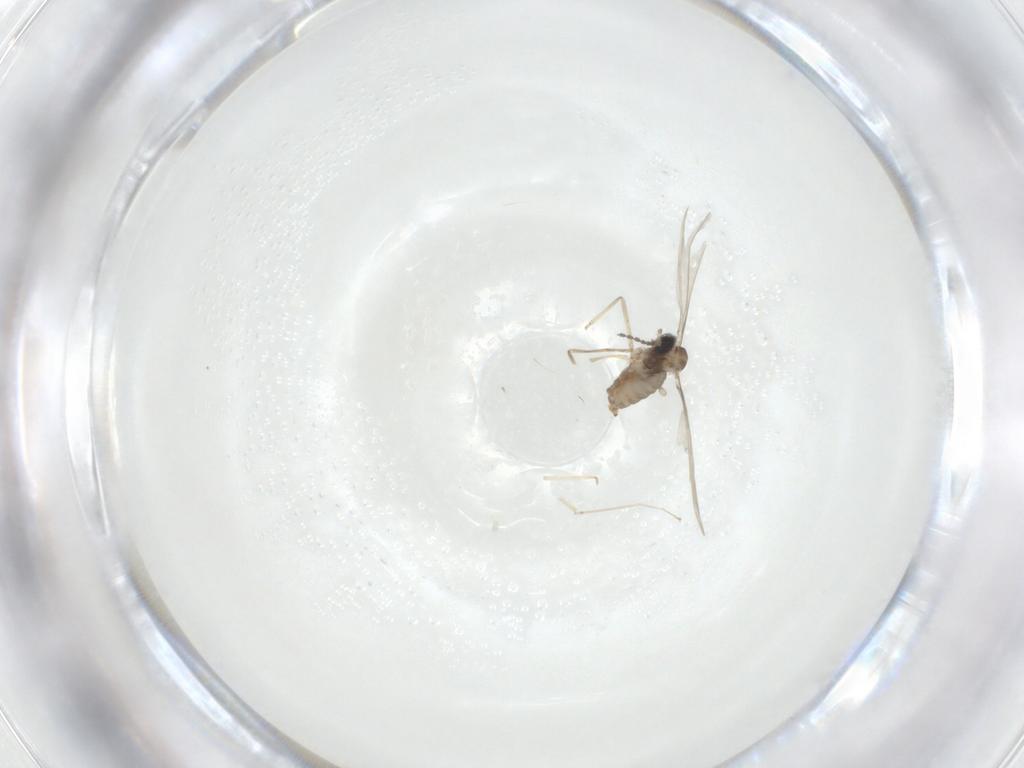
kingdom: Animalia
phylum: Arthropoda
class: Insecta
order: Diptera
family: Cecidomyiidae
